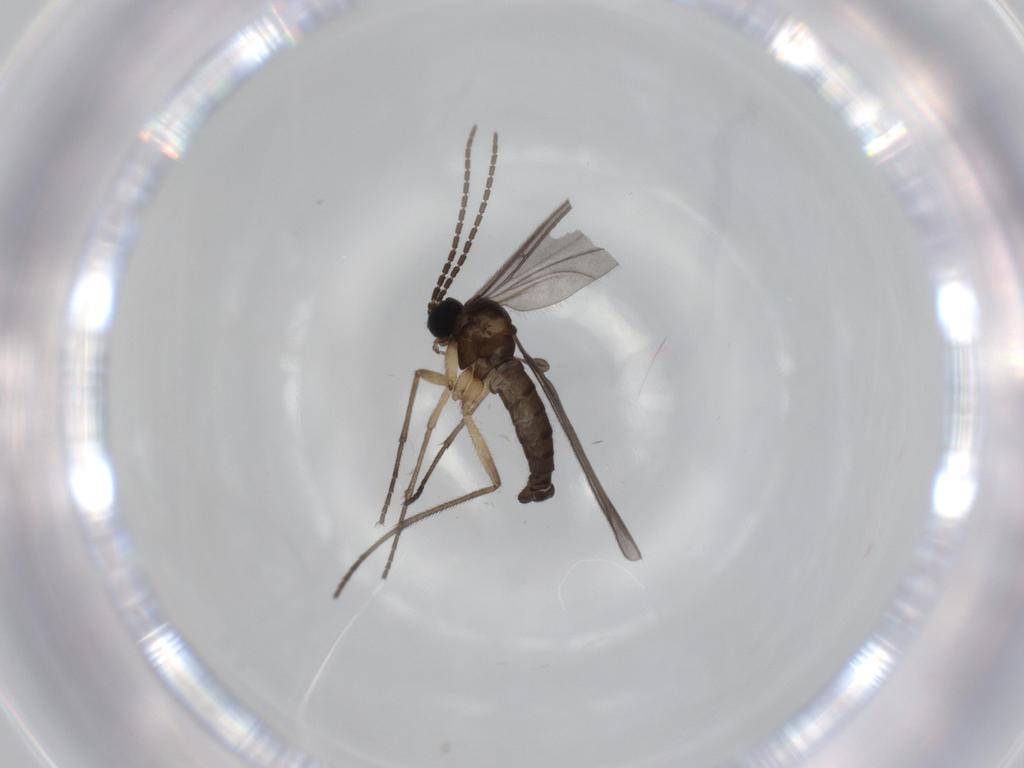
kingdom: Animalia
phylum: Arthropoda
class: Insecta
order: Diptera
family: Sciaridae
